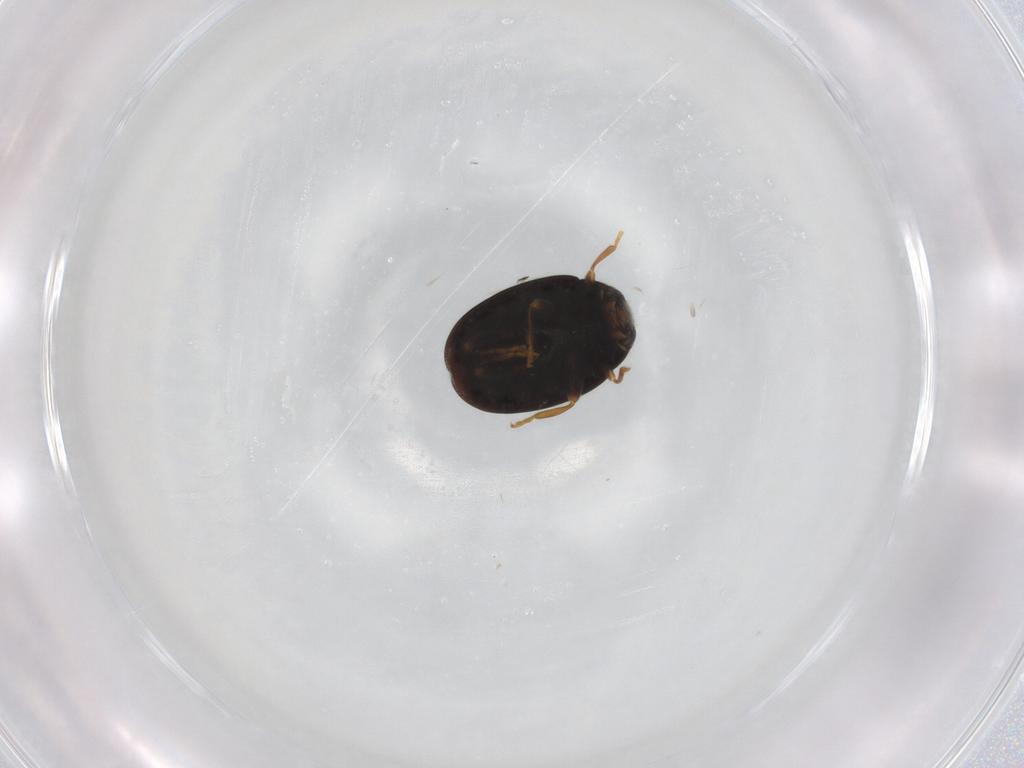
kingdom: Animalia
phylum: Arthropoda
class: Insecta
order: Coleoptera
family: Coccinellidae
